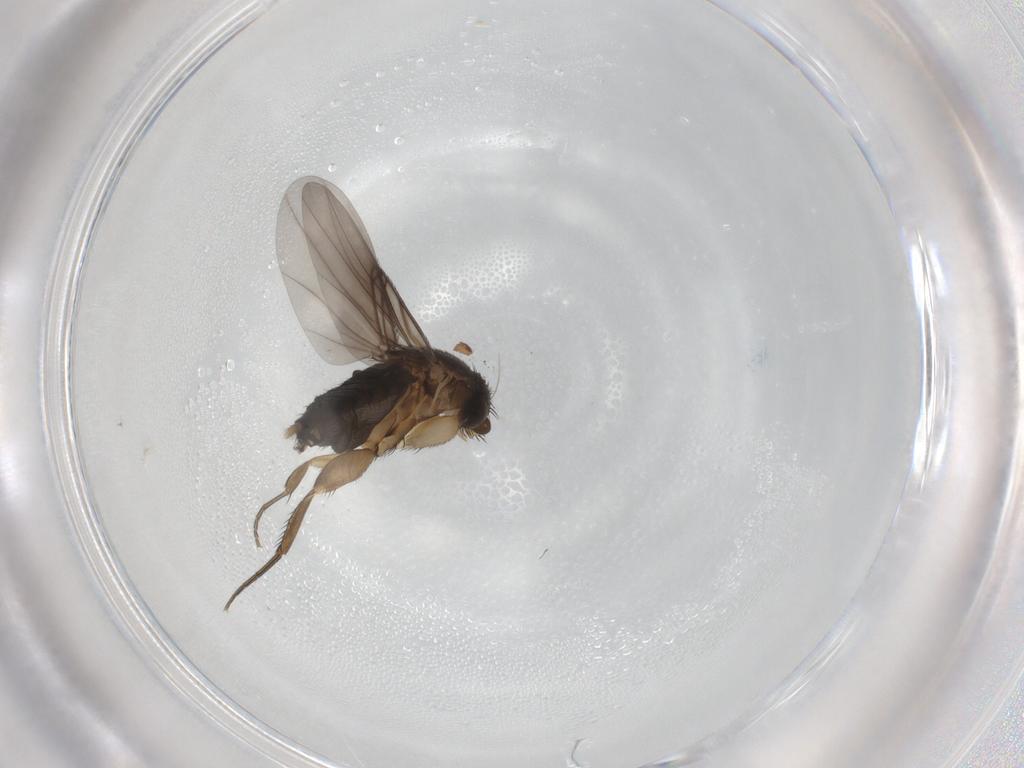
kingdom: Animalia
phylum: Arthropoda
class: Insecta
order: Diptera
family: Phoridae
